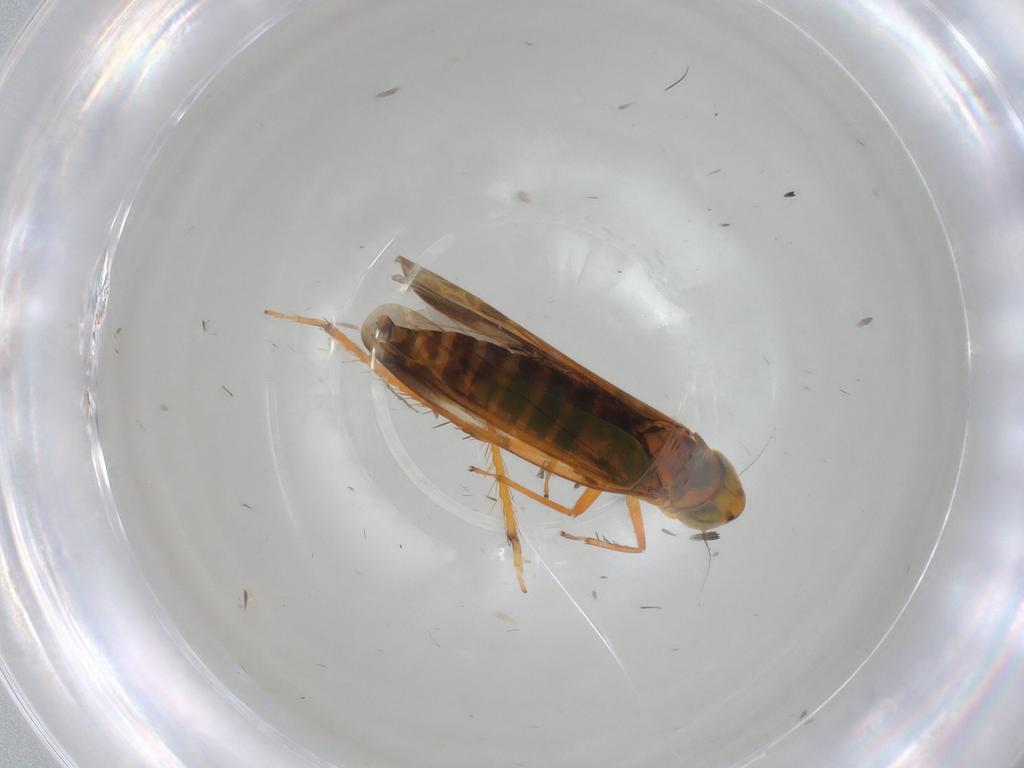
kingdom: Animalia
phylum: Arthropoda
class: Insecta
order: Hemiptera
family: Cicadellidae
